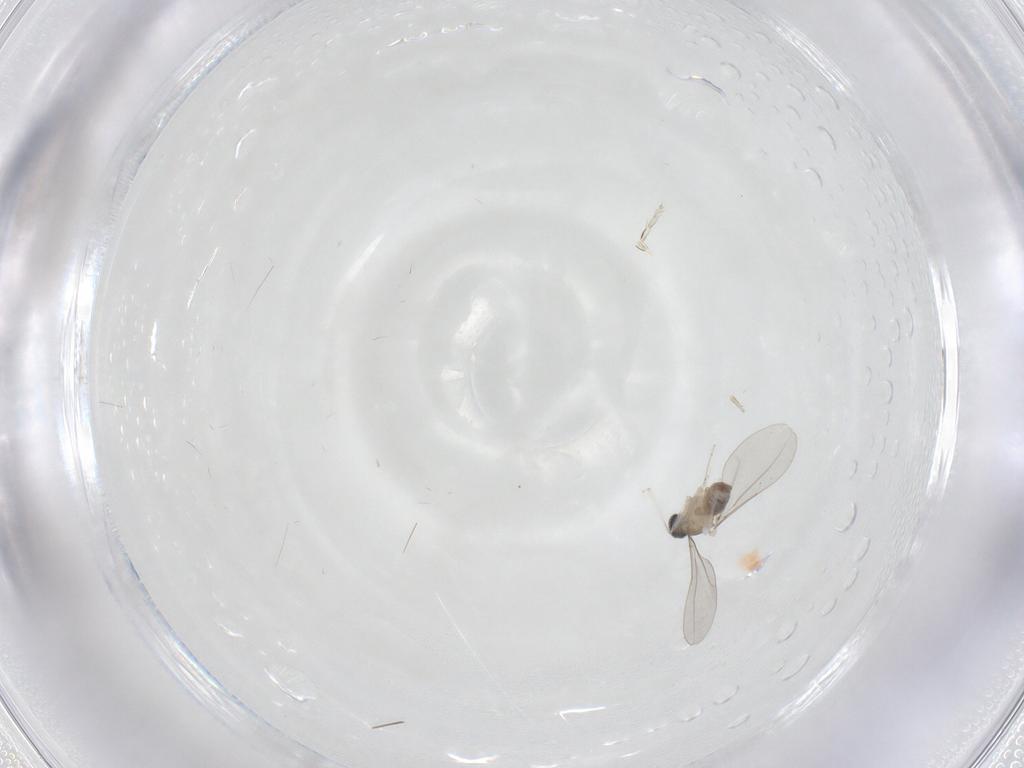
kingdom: Animalia
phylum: Arthropoda
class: Insecta
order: Diptera
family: Cecidomyiidae
